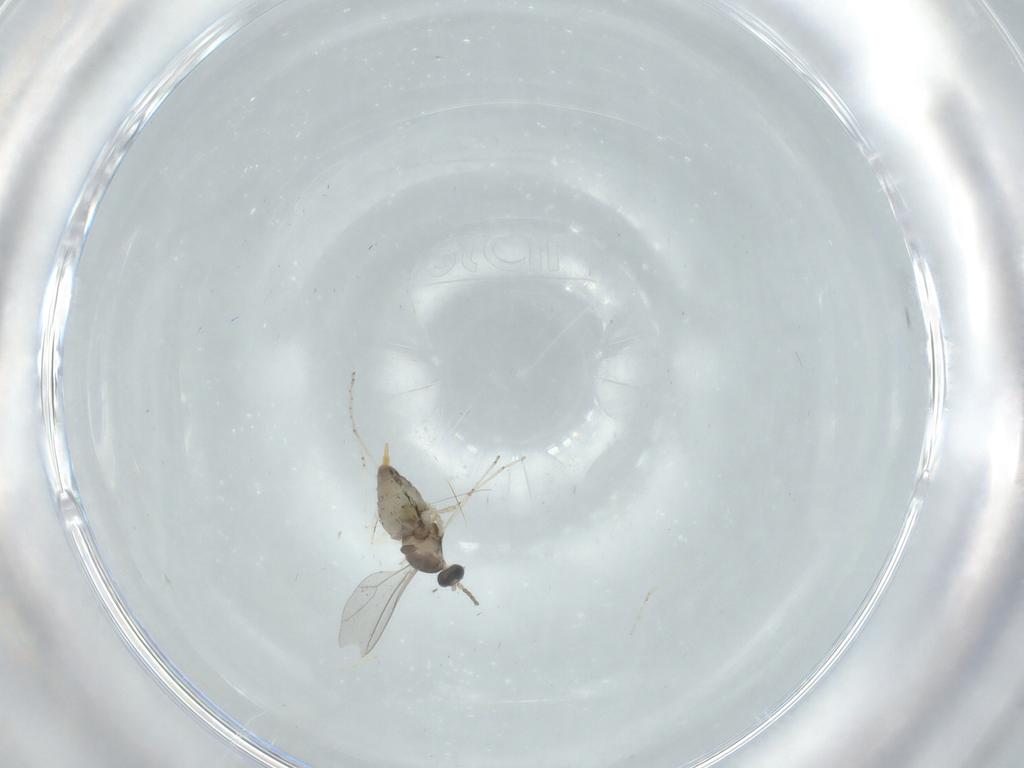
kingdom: Animalia
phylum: Arthropoda
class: Insecta
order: Diptera
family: Cecidomyiidae
